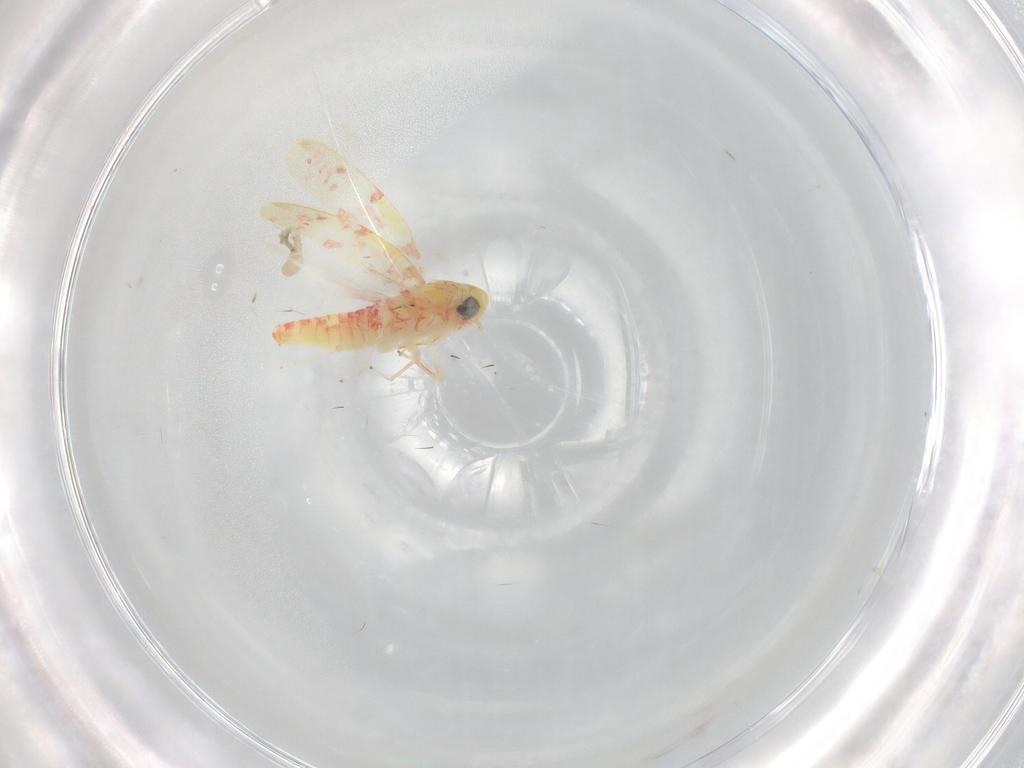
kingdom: Animalia
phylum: Arthropoda
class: Insecta
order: Hemiptera
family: Cicadellidae
